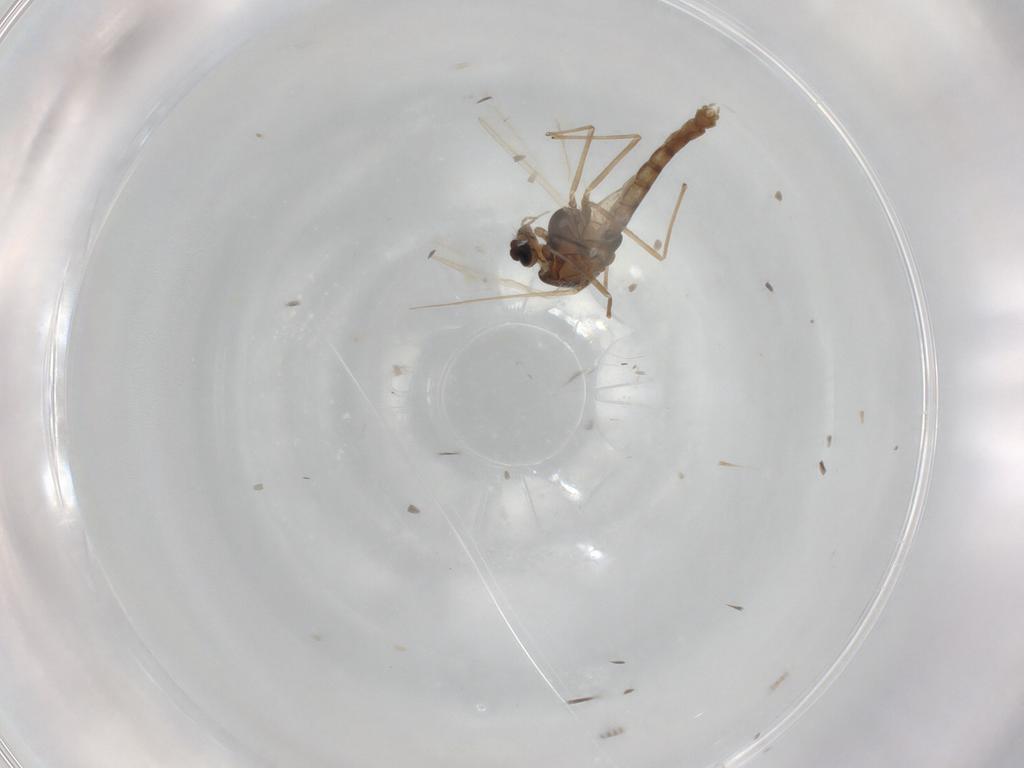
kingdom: Animalia
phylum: Arthropoda
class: Insecta
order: Diptera
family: Chironomidae
